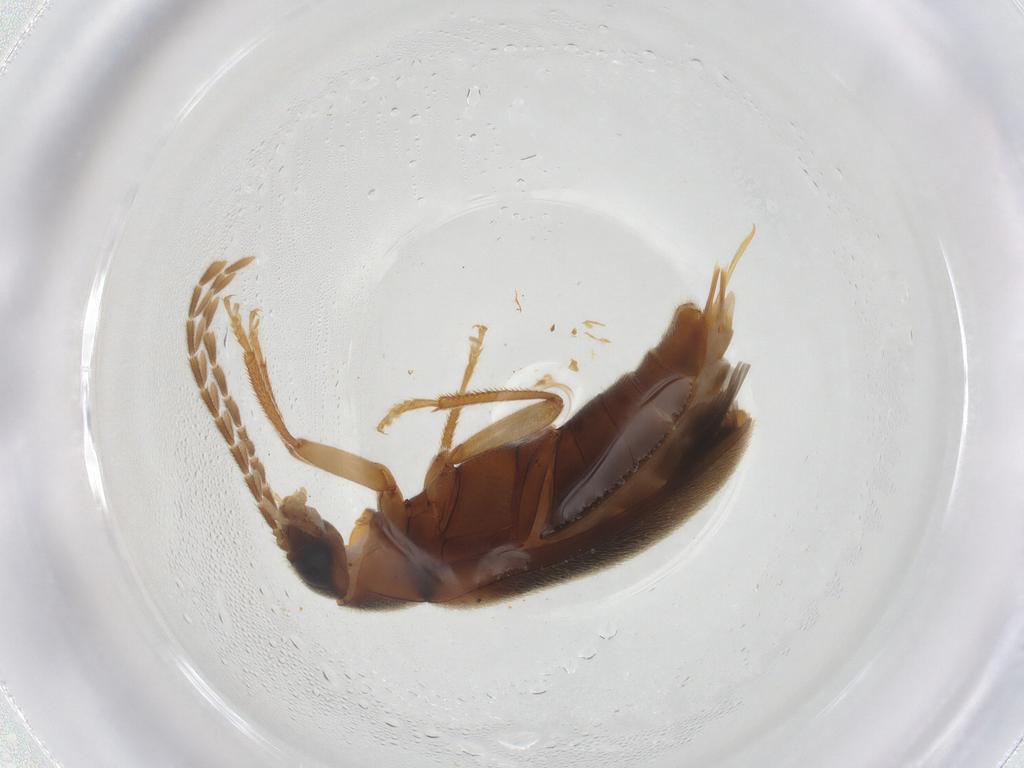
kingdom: Animalia
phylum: Arthropoda
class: Insecta
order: Coleoptera
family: Ptilodactylidae
